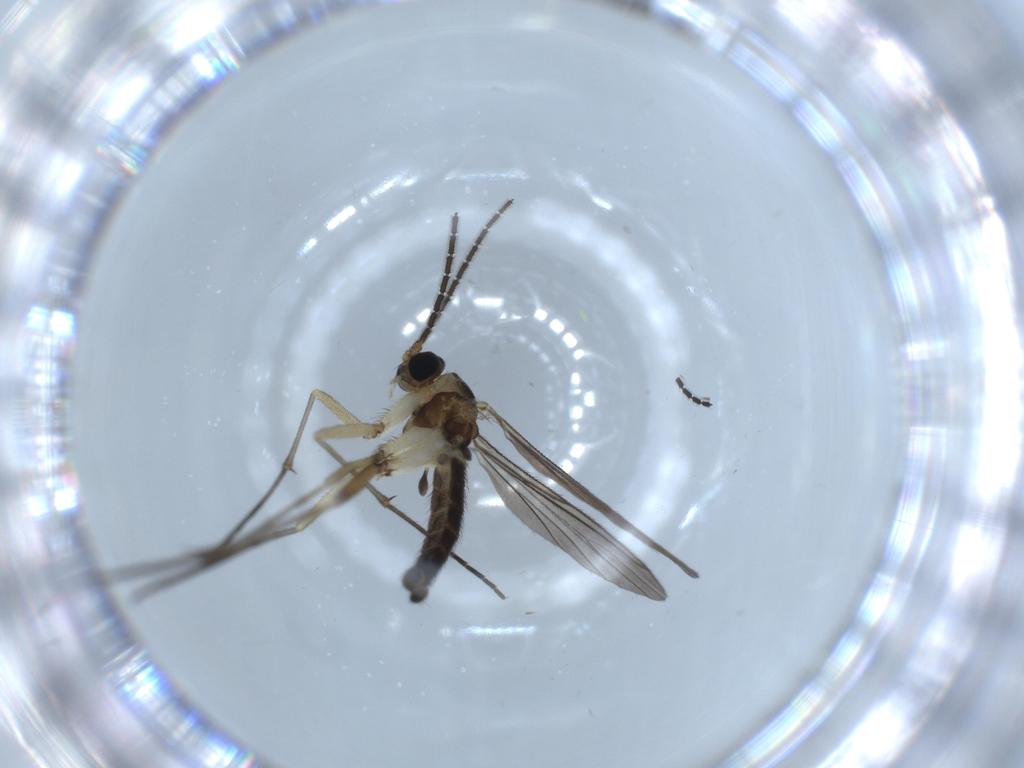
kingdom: Animalia
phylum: Arthropoda
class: Insecta
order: Diptera
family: Sciaridae
